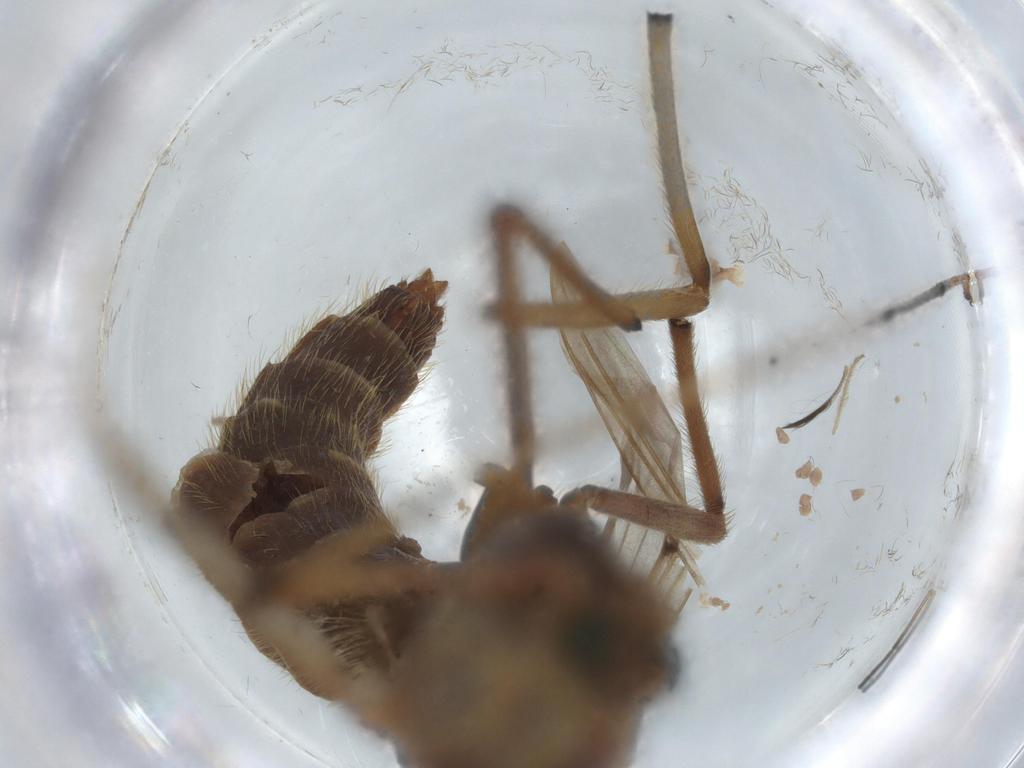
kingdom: Animalia
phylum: Arthropoda
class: Insecta
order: Diptera
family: Chironomidae
